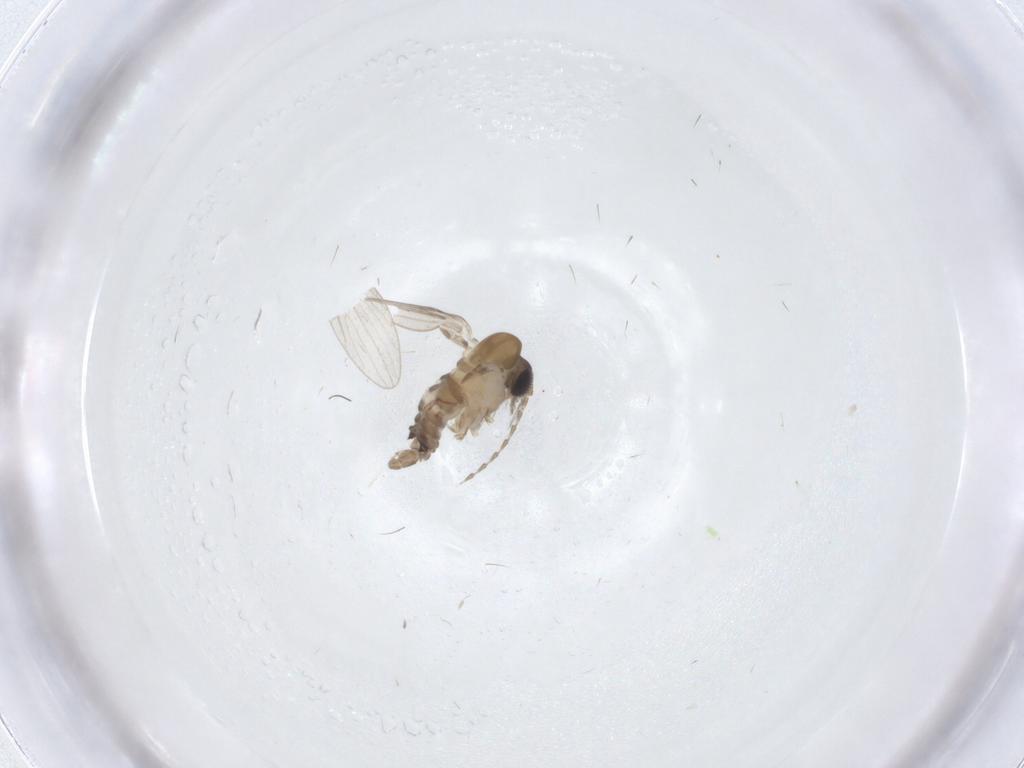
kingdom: Animalia
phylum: Arthropoda
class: Insecta
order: Diptera
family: Psychodidae
